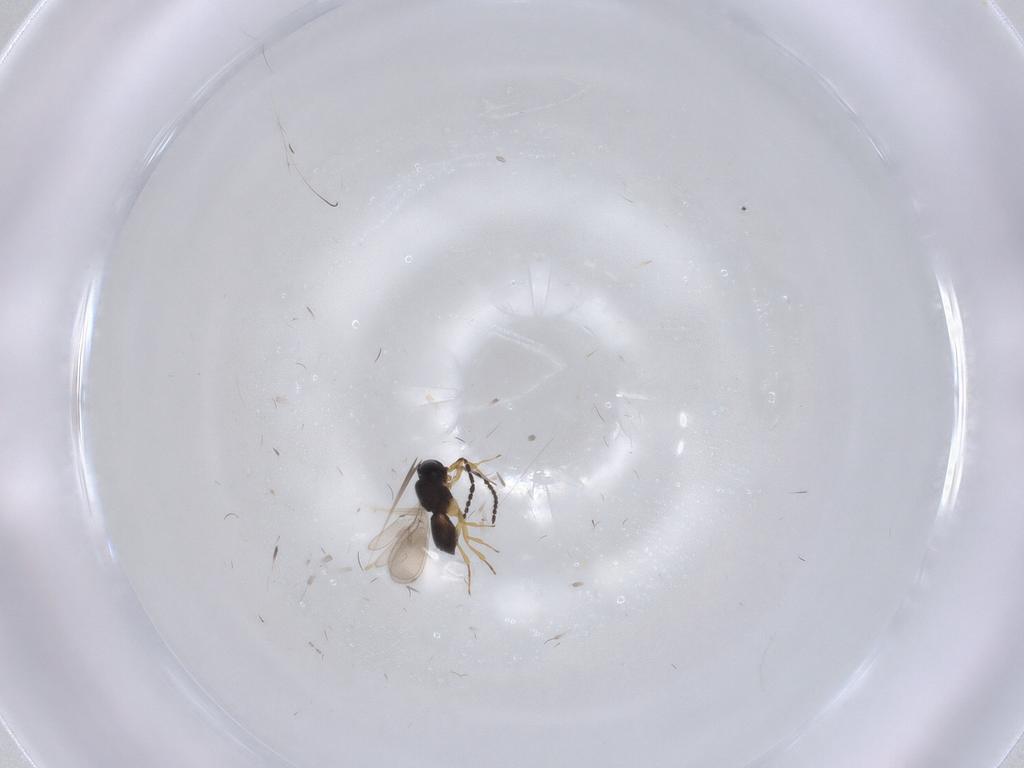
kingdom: Animalia
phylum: Arthropoda
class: Insecta
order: Hymenoptera
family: Scelionidae
